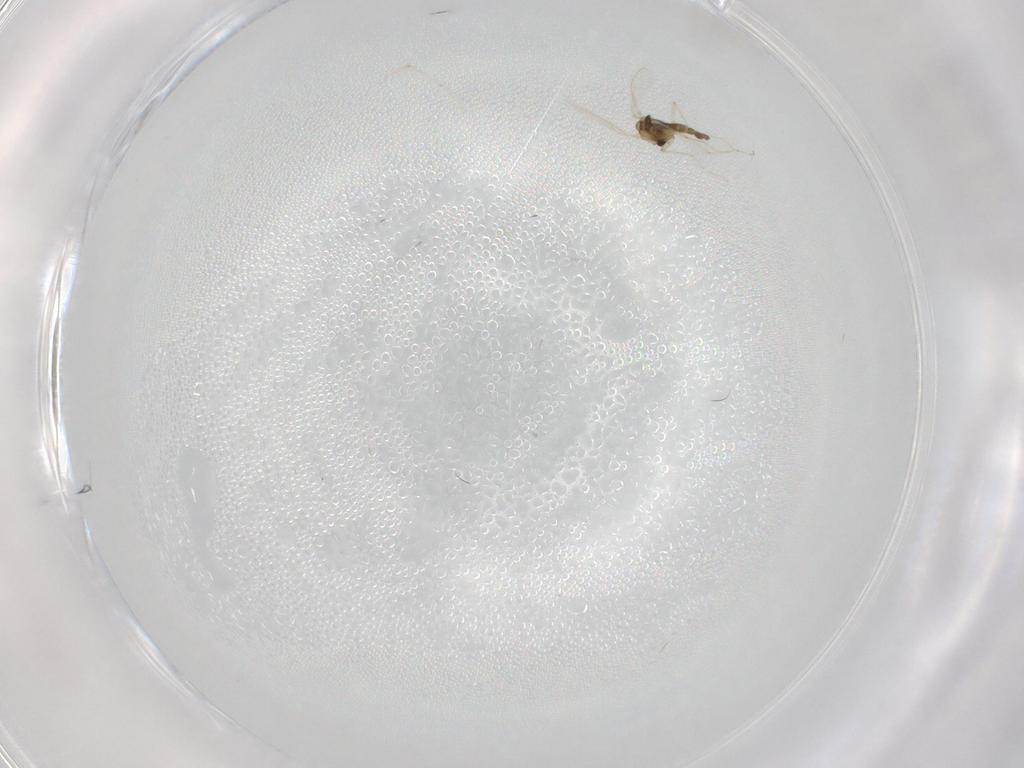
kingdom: Animalia
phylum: Arthropoda
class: Insecta
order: Diptera
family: Chironomidae
